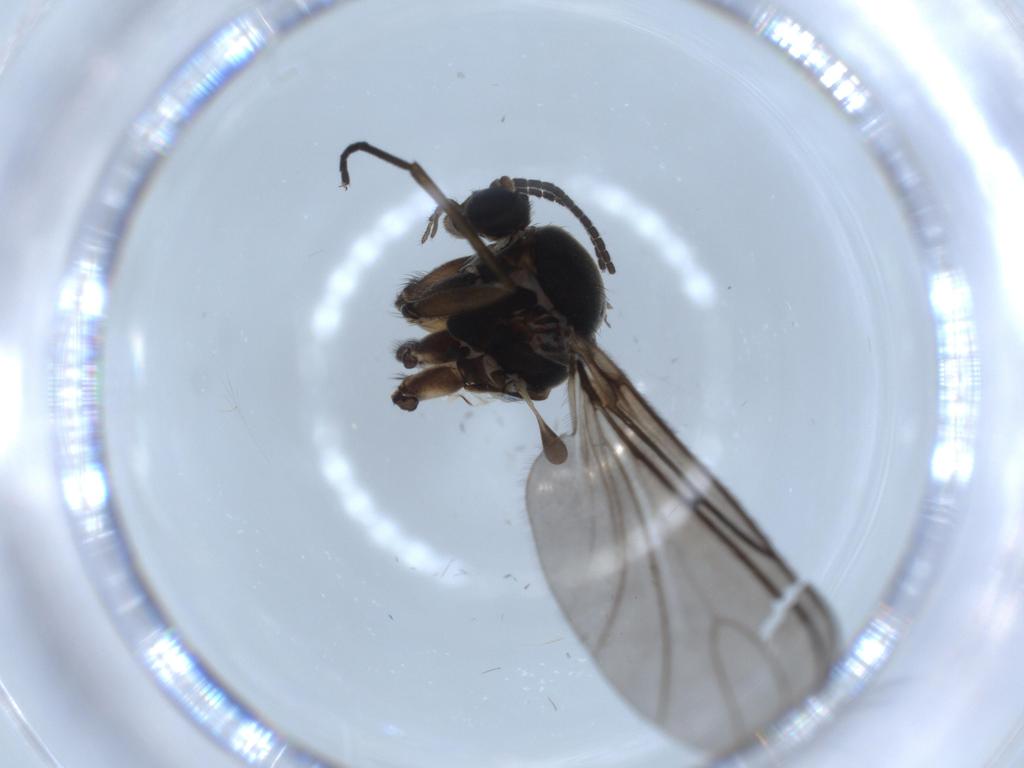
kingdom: Animalia
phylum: Arthropoda
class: Insecta
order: Diptera
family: Sciaridae
